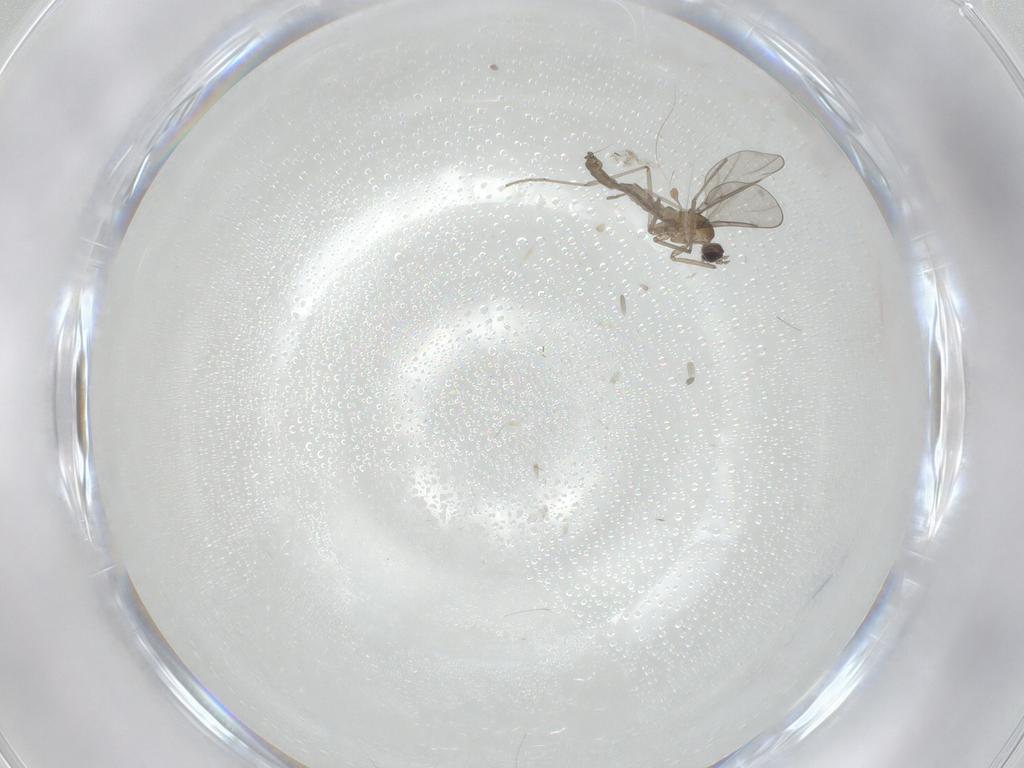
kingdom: Animalia
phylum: Arthropoda
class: Insecta
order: Diptera
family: Cecidomyiidae
